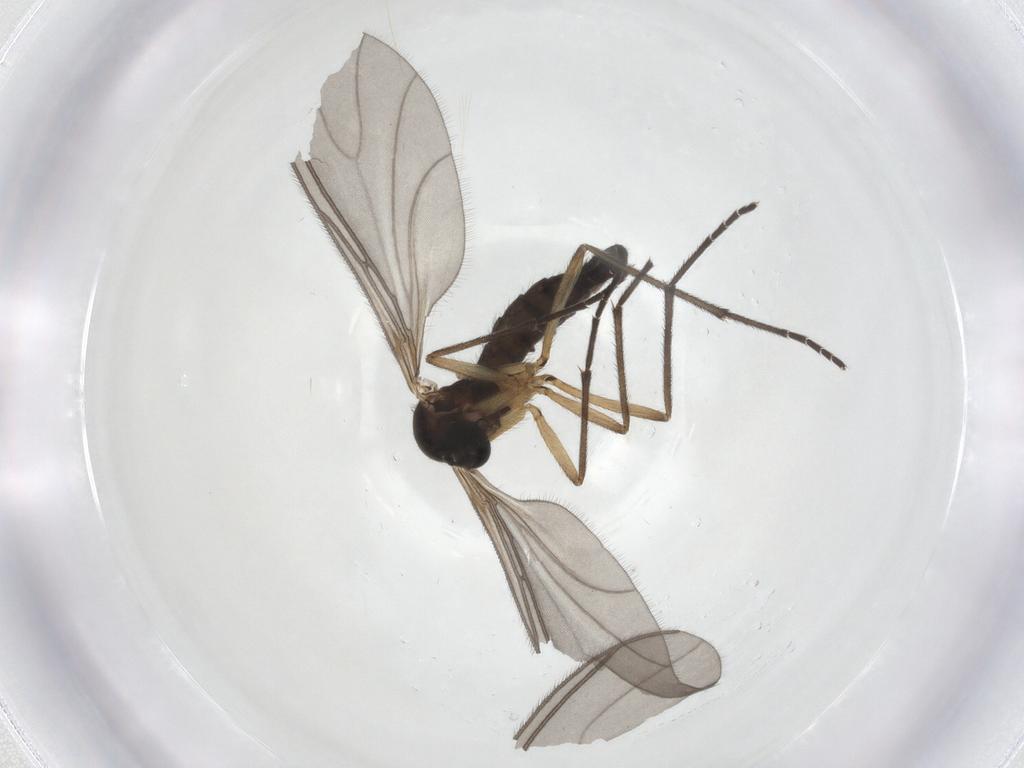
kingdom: Animalia
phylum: Arthropoda
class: Insecta
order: Diptera
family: Sciaridae
